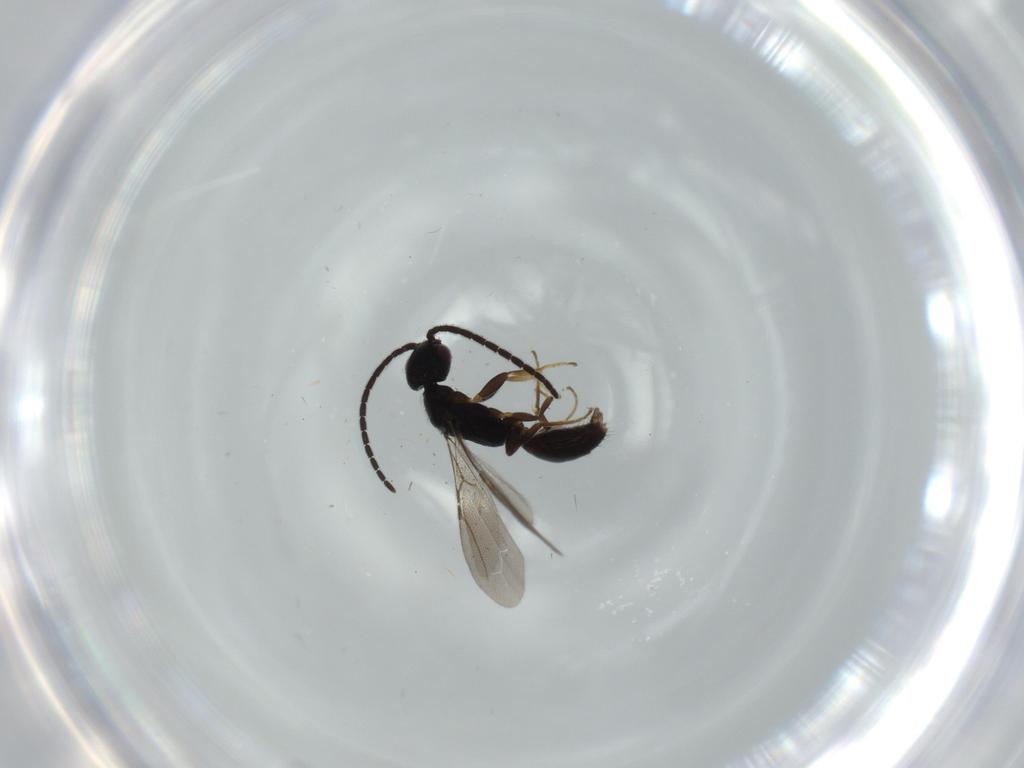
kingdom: Animalia
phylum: Arthropoda
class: Insecta
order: Hymenoptera
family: Bethylidae
